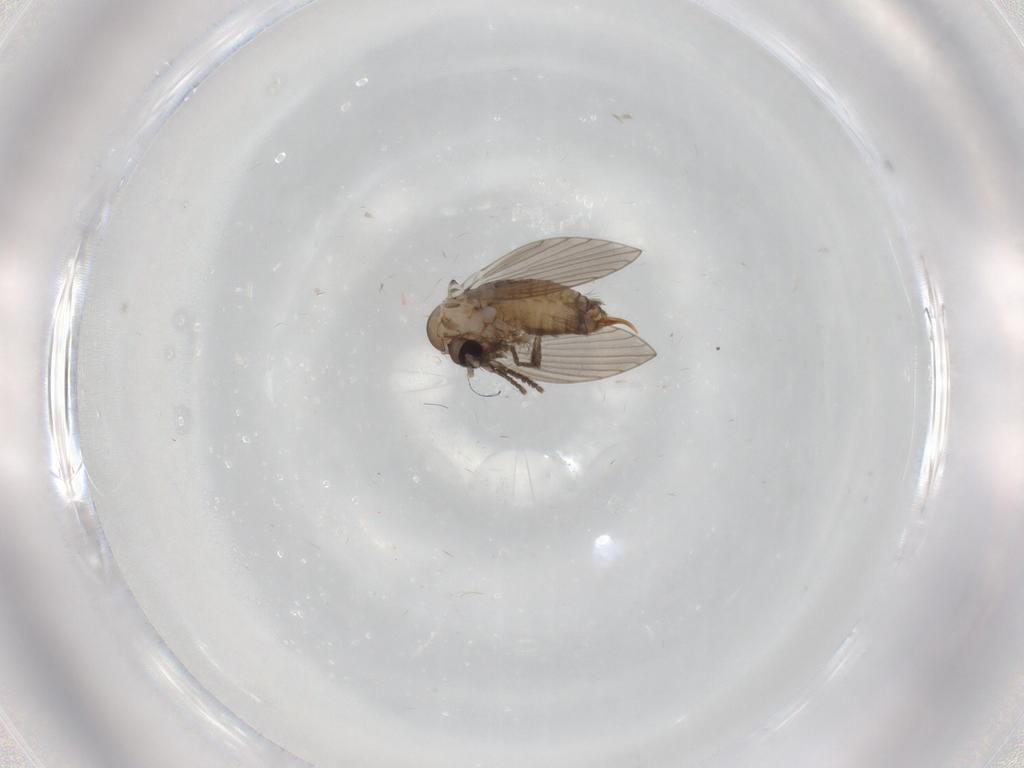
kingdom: Animalia
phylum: Arthropoda
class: Insecta
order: Diptera
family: Psychodidae
